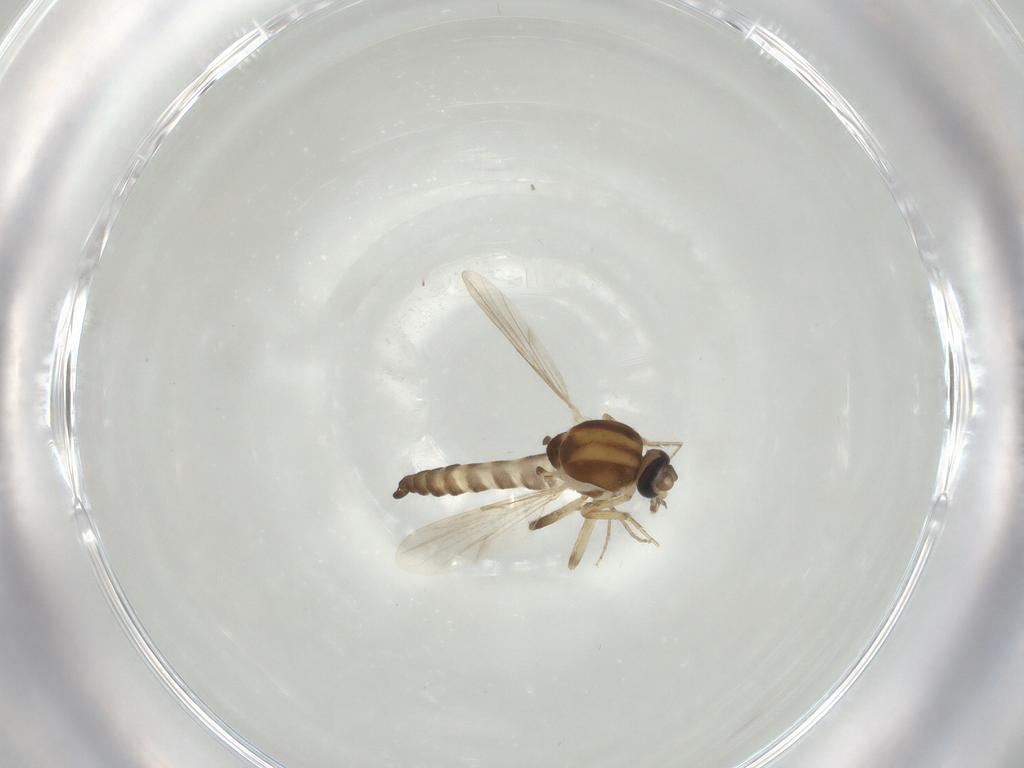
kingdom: Animalia
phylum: Arthropoda
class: Insecta
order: Diptera
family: Ceratopogonidae
